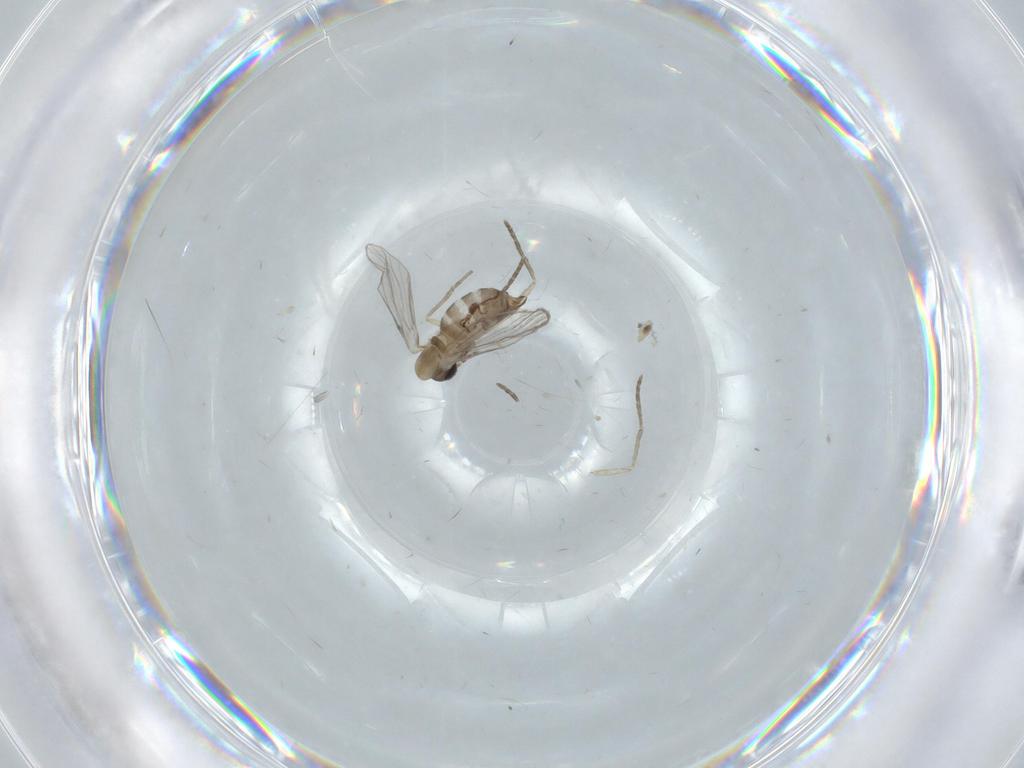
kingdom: Animalia
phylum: Arthropoda
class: Insecta
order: Diptera
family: Psychodidae
